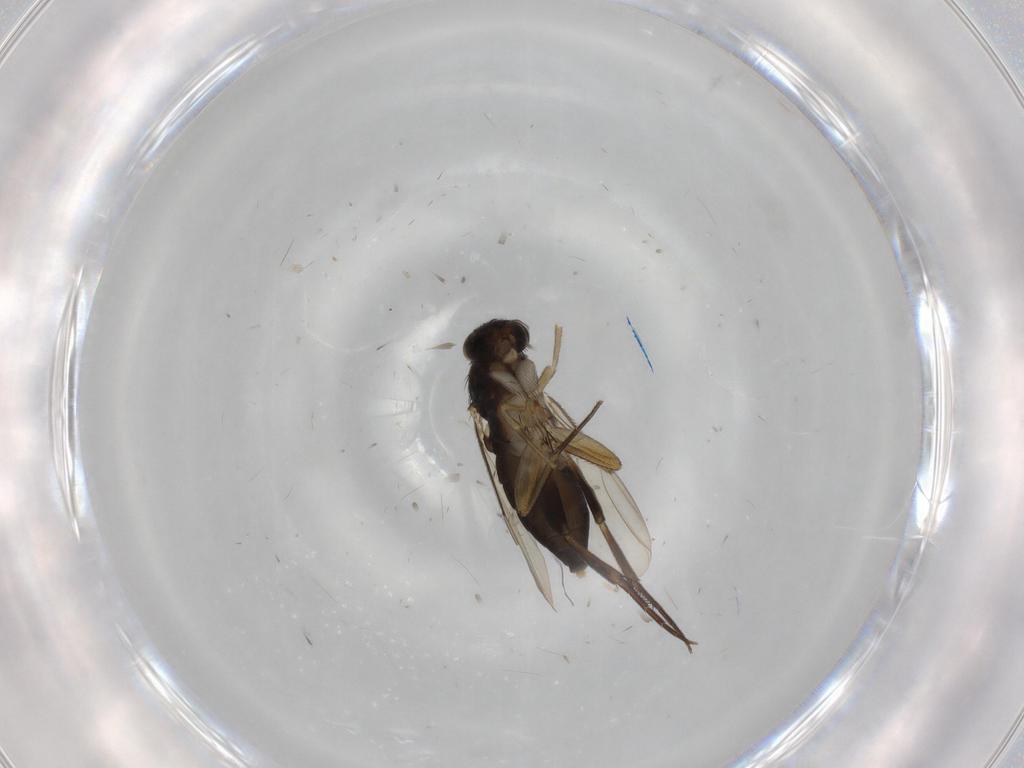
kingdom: Animalia
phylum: Arthropoda
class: Insecta
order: Diptera
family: Phoridae
